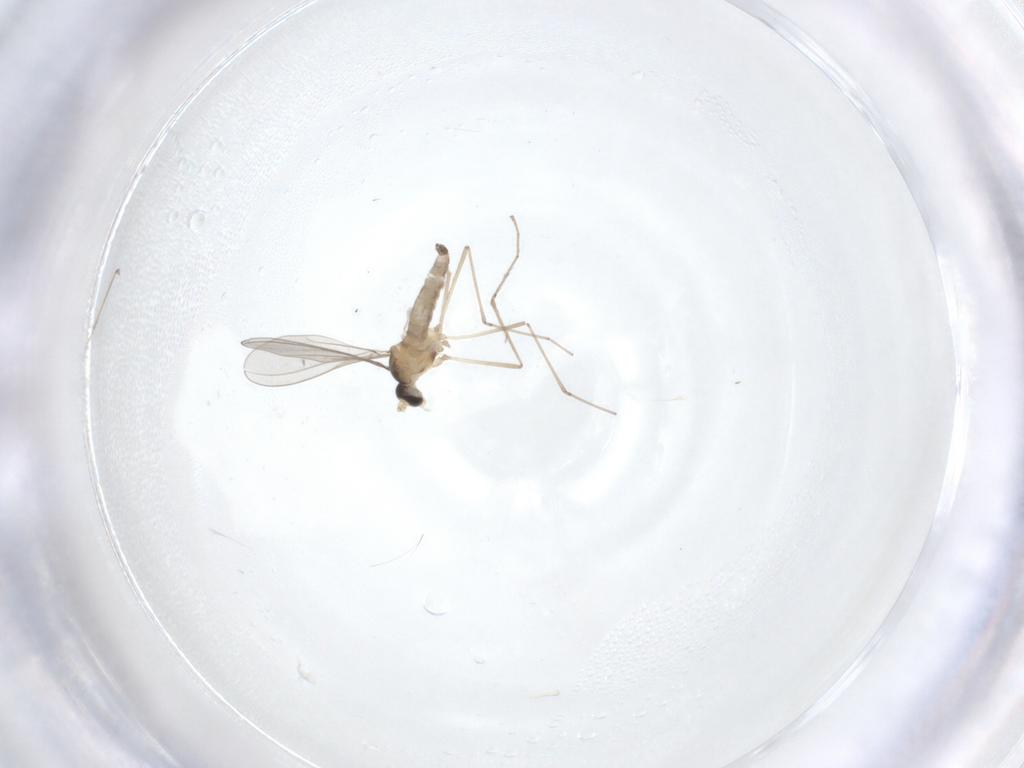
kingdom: Animalia
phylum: Arthropoda
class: Insecta
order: Diptera
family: Cecidomyiidae
